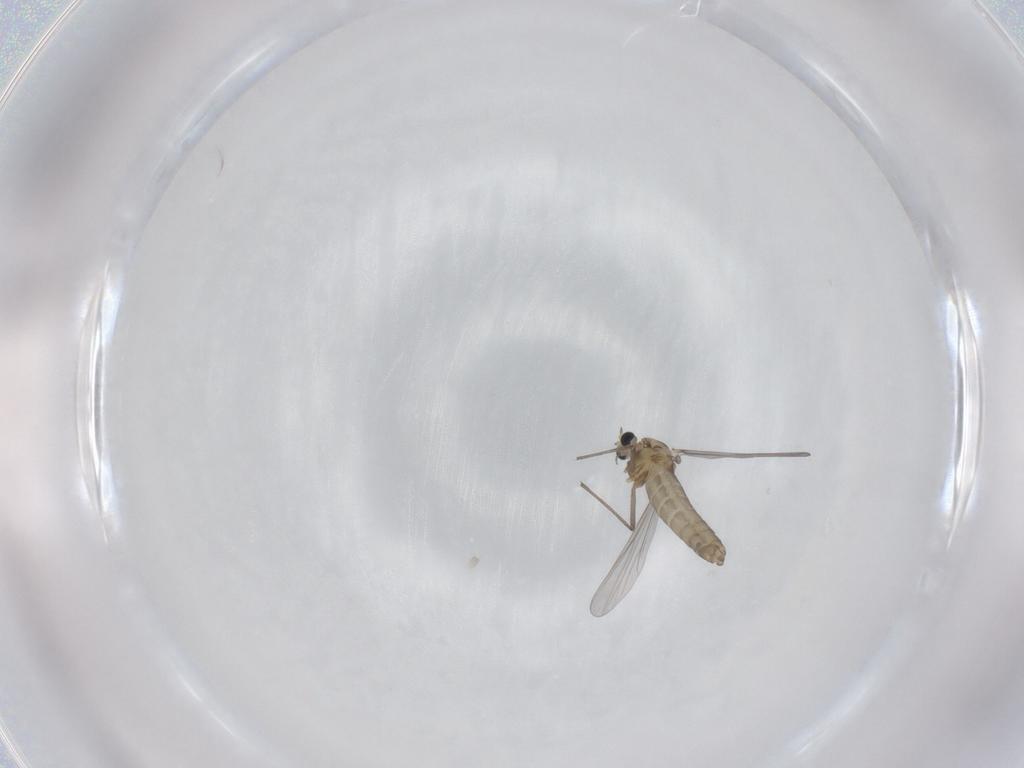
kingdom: Animalia
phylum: Arthropoda
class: Insecta
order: Diptera
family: Chironomidae
